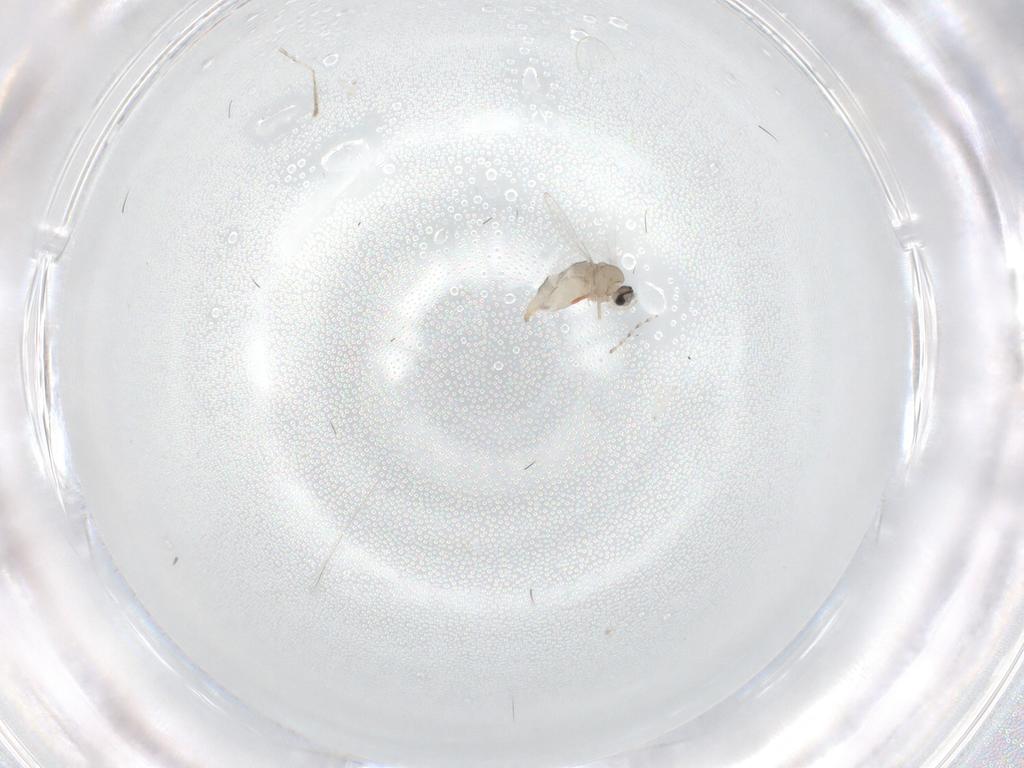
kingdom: Animalia
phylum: Arthropoda
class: Insecta
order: Diptera
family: Cecidomyiidae
